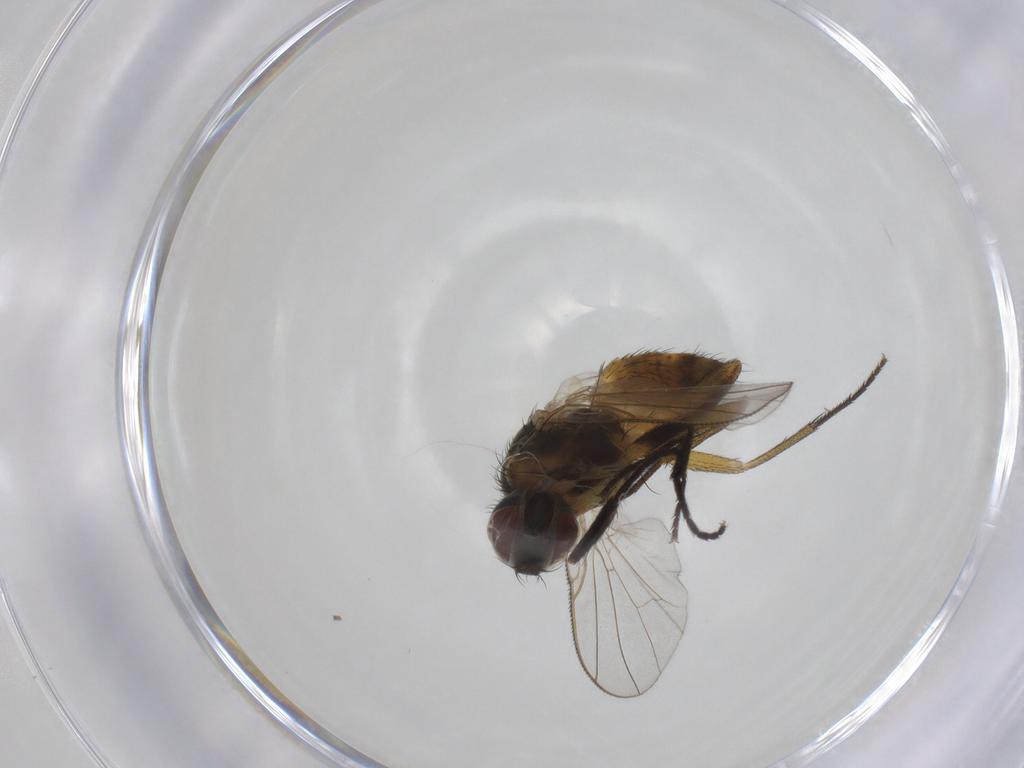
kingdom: Animalia
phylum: Arthropoda
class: Insecta
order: Diptera
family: Muscidae
